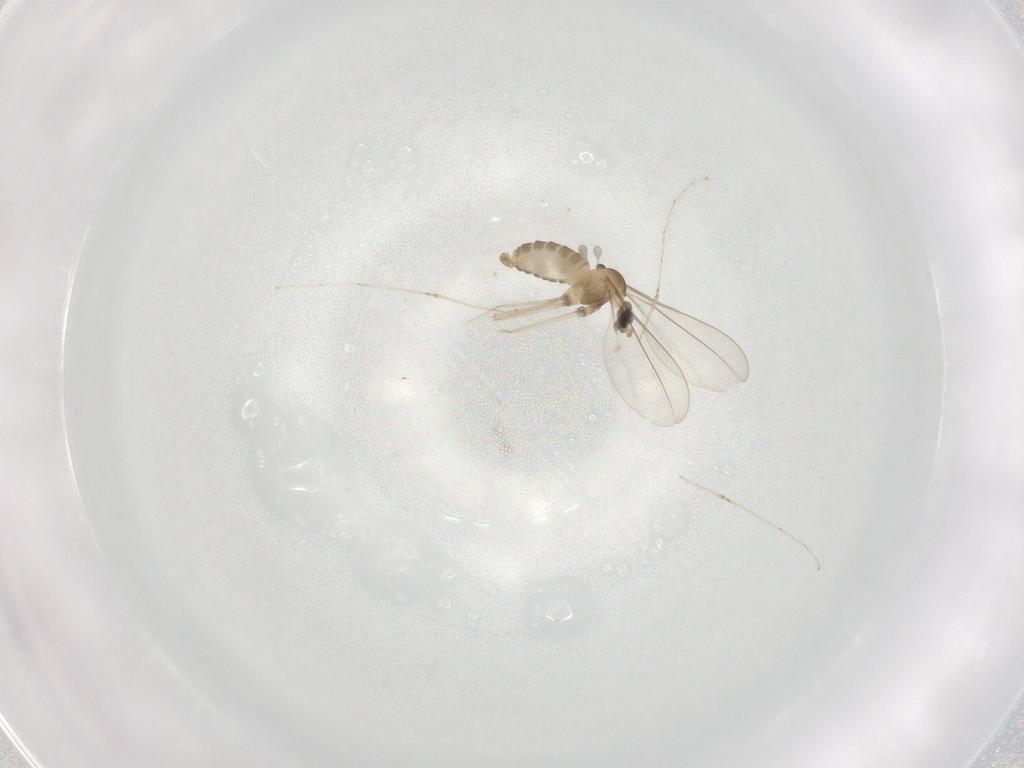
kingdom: Animalia
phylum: Arthropoda
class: Insecta
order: Diptera
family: Cecidomyiidae
